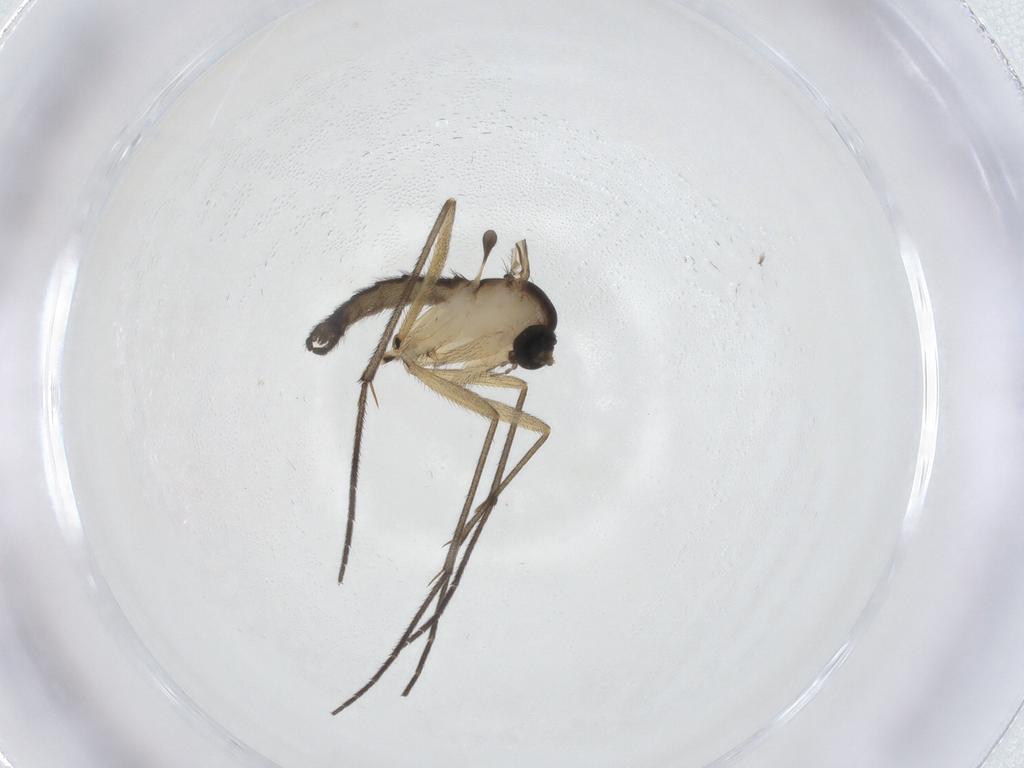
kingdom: Animalia
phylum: Arthropoda
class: Insecta
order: Diptera
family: Sciaridae
